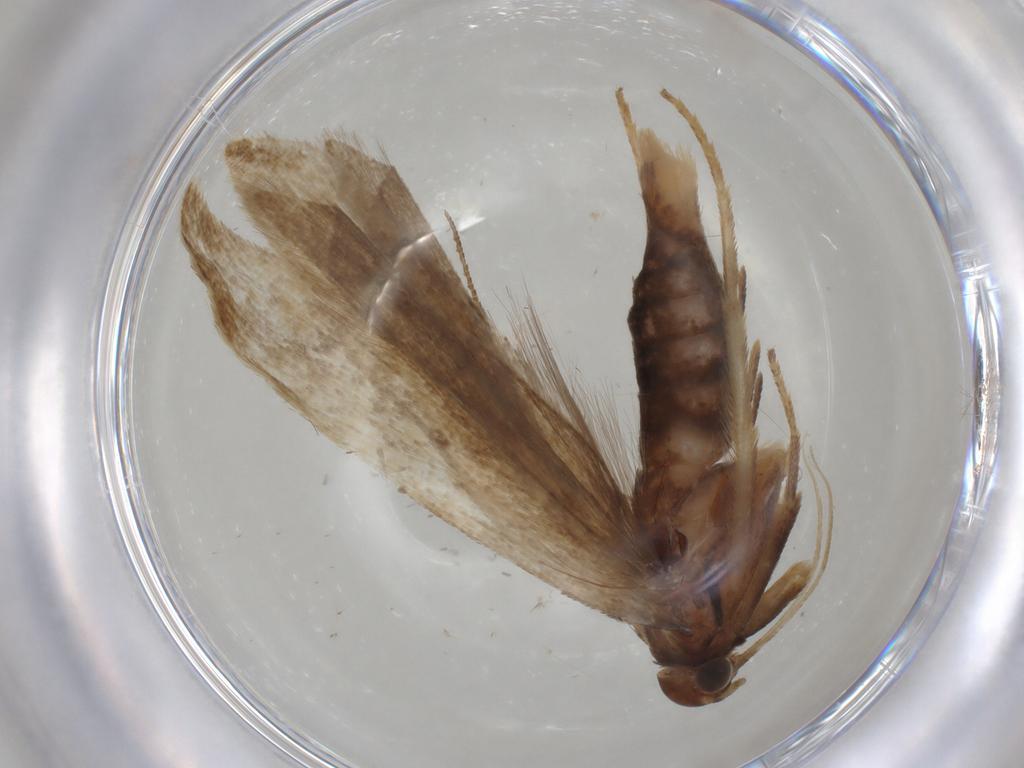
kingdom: Animalia
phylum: Arthropoda
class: Insecta
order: Lepidoptera
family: Gelechiidae
